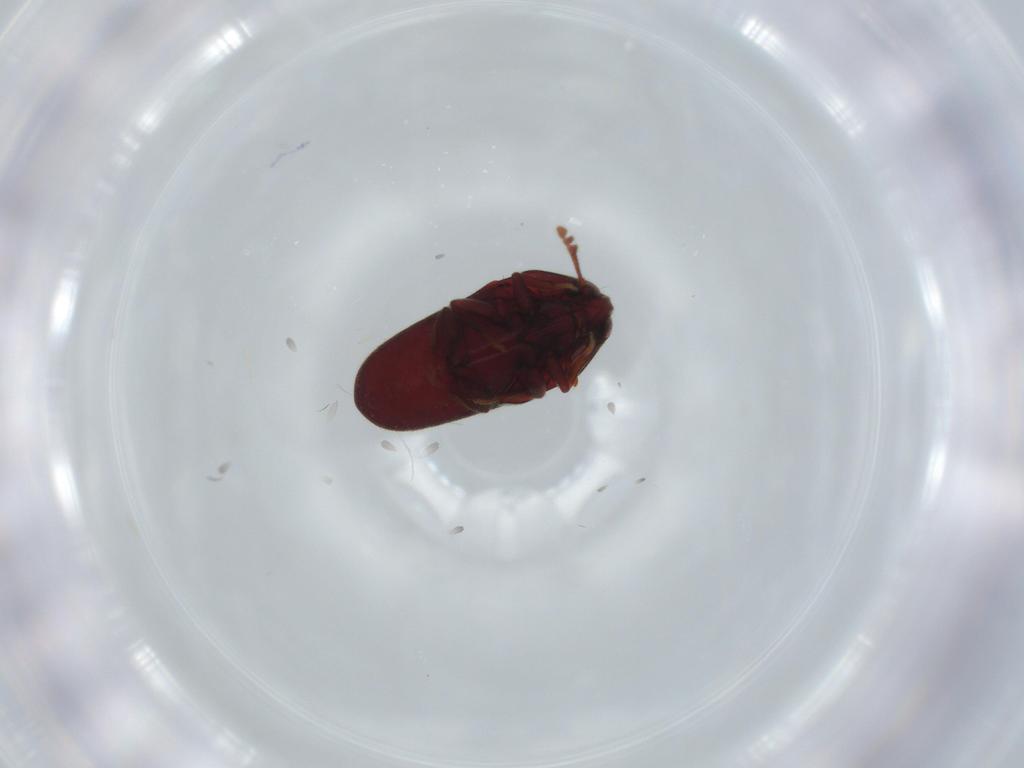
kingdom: Animalia
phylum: Arthropoda
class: Insecta
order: Coleoptera
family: Throscidae
